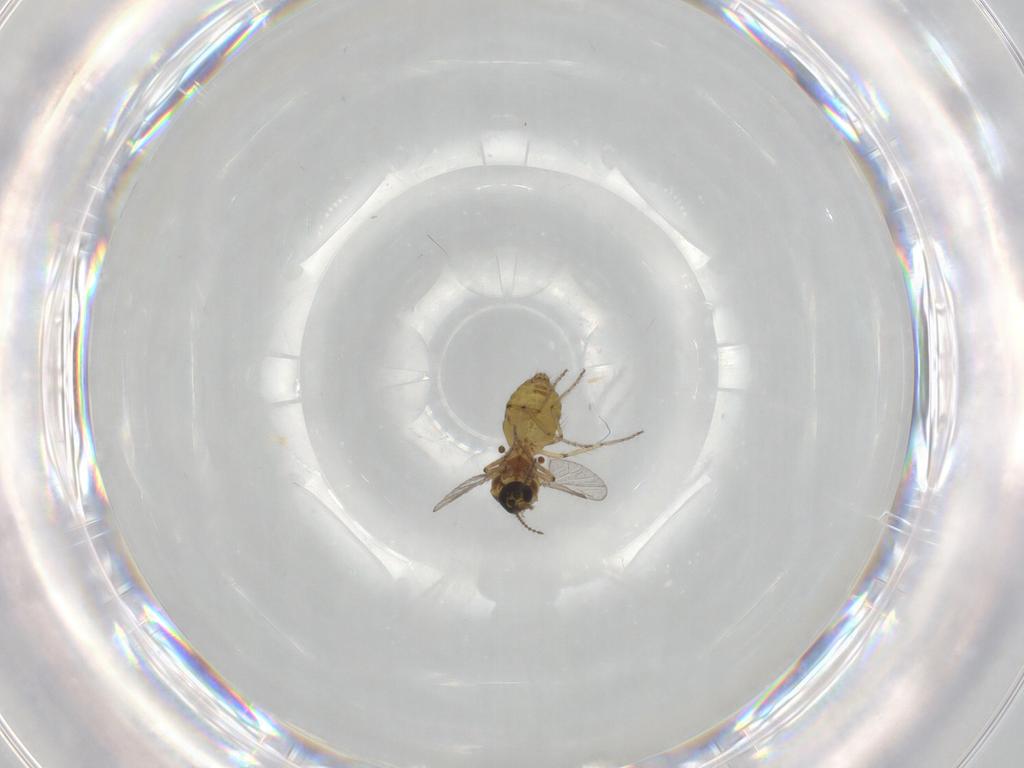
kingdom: Animalia
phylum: Arthropoda
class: Insecta
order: Diptera
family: Ceratopogonidae
